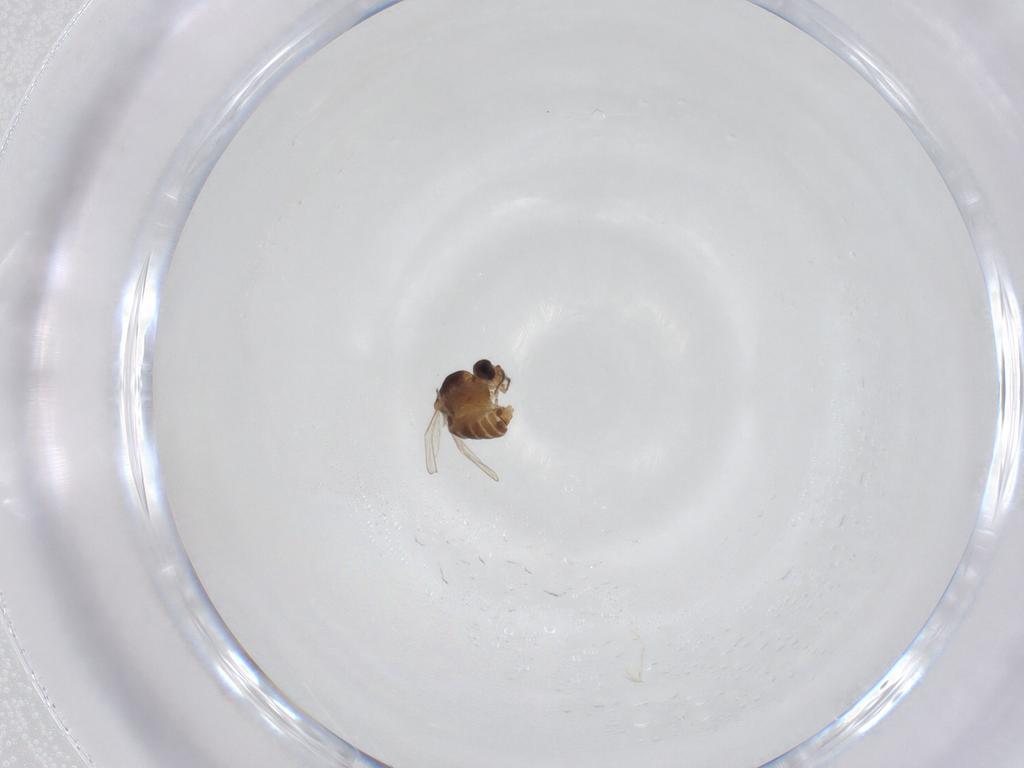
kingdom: Animalia
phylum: Arthropoda
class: Insecta
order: Diptera
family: Ceratopogonidae
